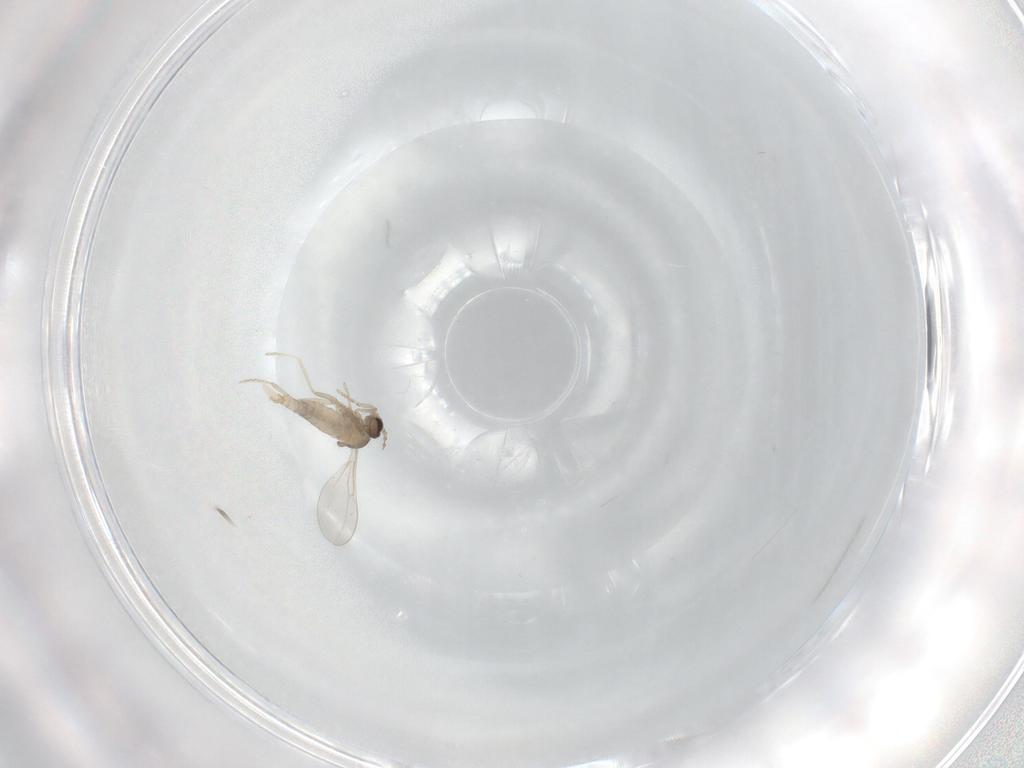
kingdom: Animalia
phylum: Arthropoda
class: Insecta
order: Diptera
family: Cecidomyiidae
